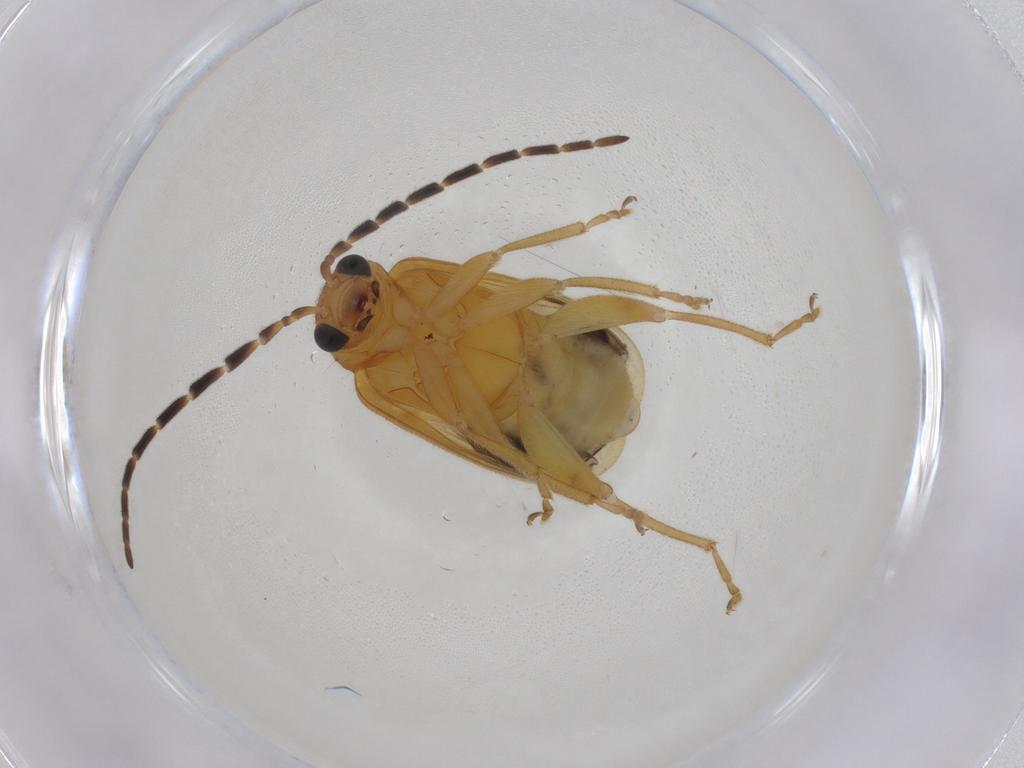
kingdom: Animalia
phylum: Arthropoda
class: Insecta
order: Coleoptera
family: Chrysomelidae
